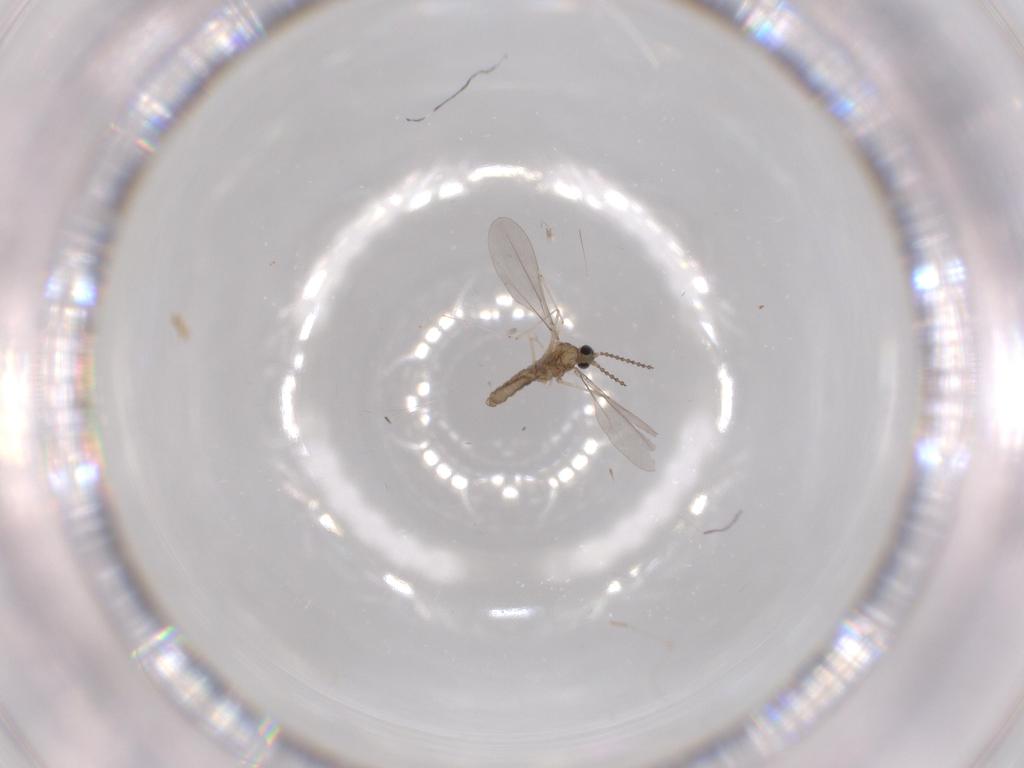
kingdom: Animalia
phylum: Arthropoda
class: Insecta
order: Diptera
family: Cecidomyiidae
